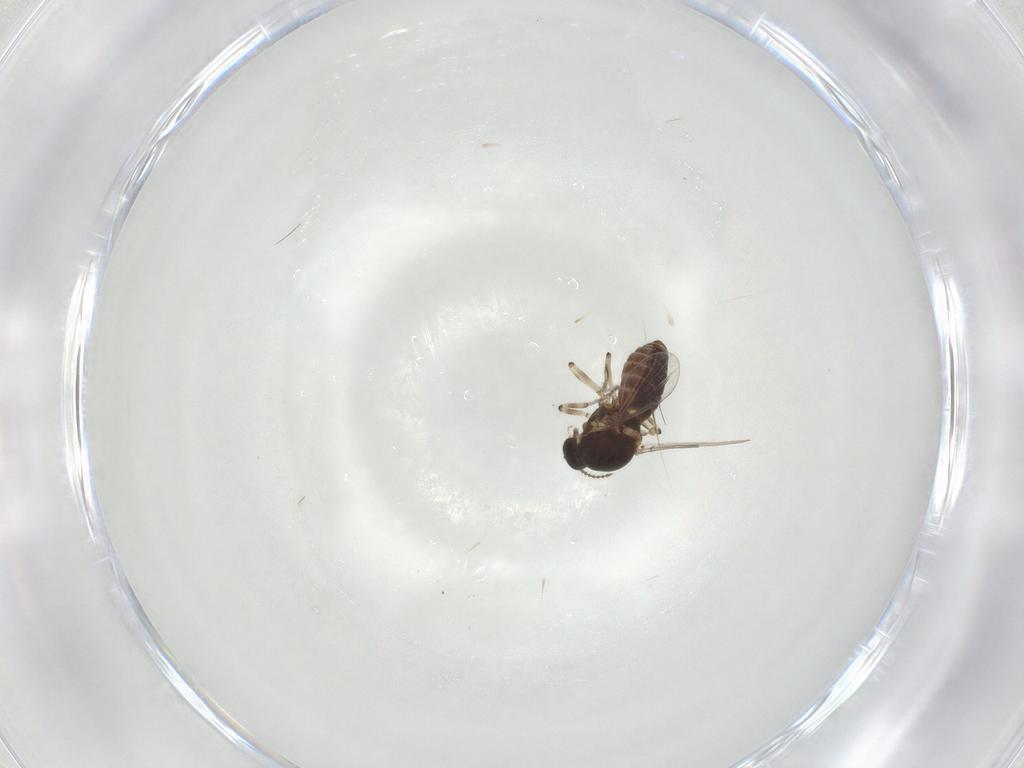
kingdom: Animalia
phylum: Arthropoda
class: Insecta
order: Diptera
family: Ceratopogonidae
